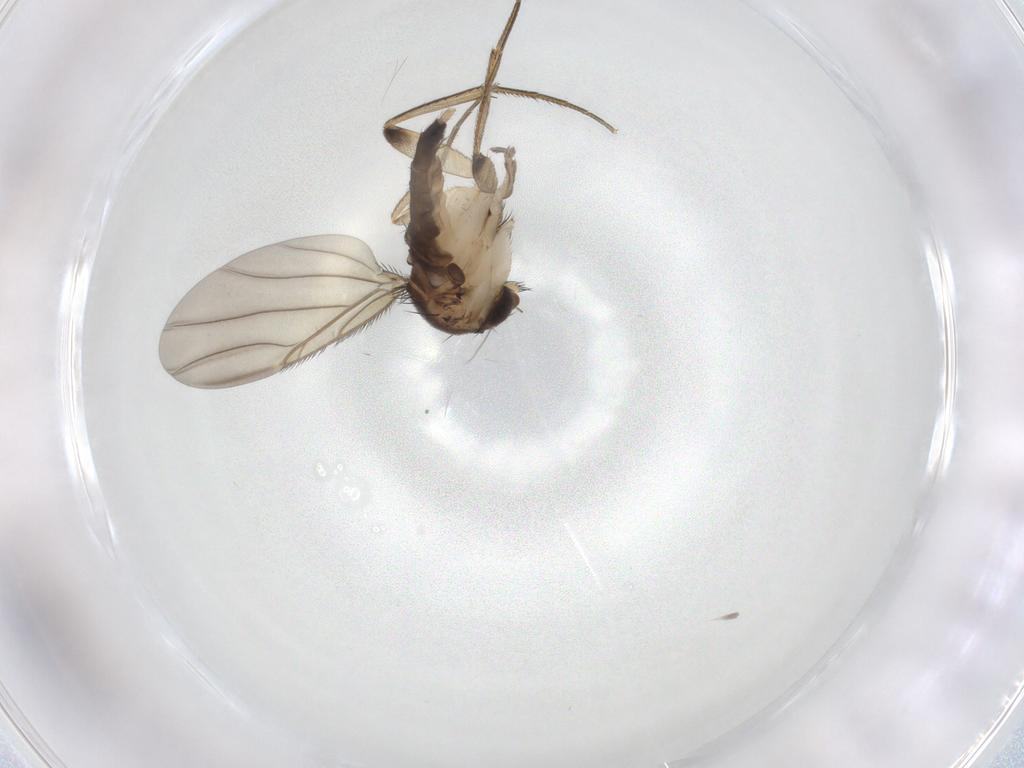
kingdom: Animalia
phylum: Arthropoda
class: Insecta
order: Diptera
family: Phoridae
